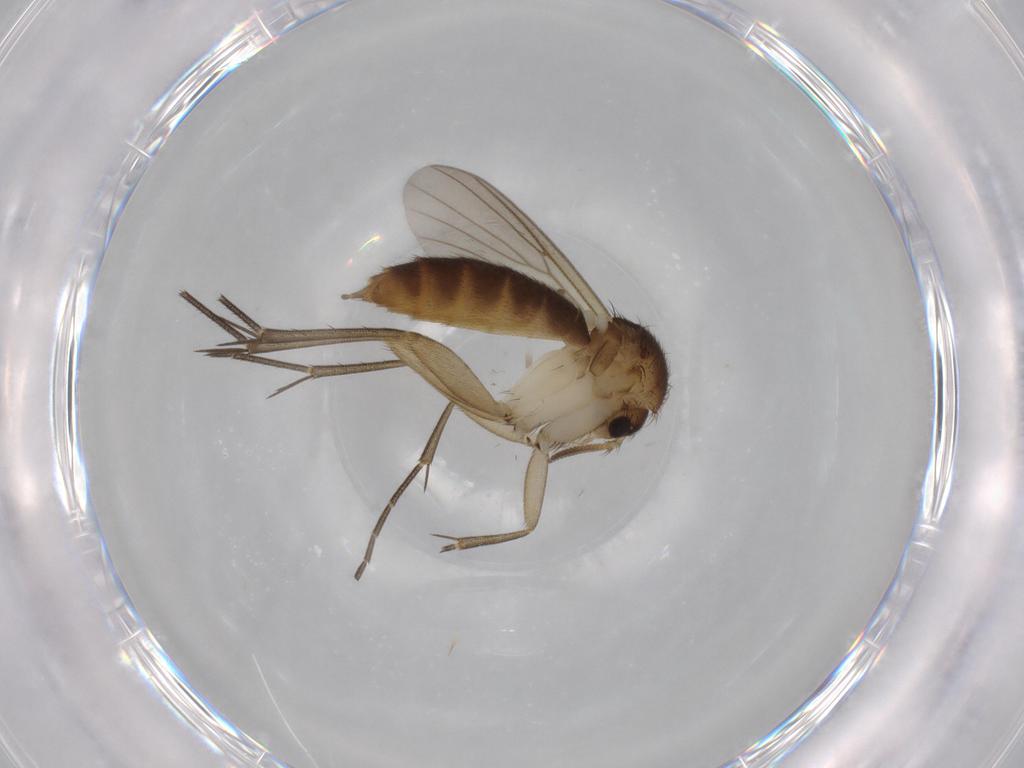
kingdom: Animalia
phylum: Arthropoda
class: Insecta
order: Diptera
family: Mycetophilidae
